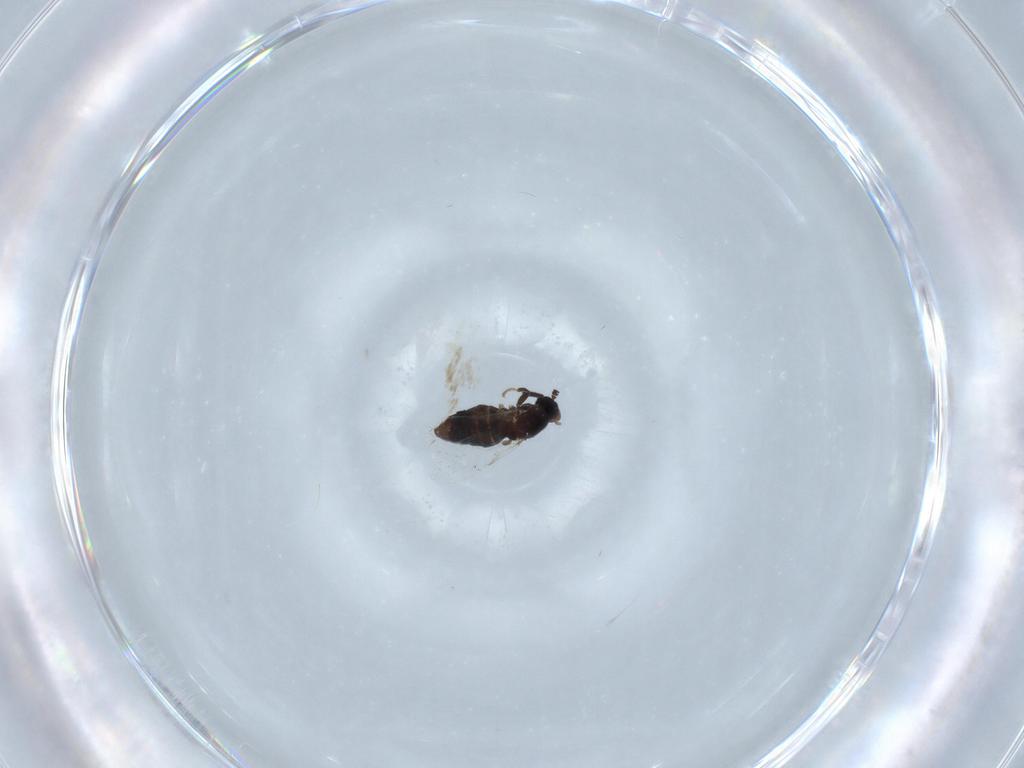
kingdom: Animalia
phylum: Arthropoda
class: Insecta
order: Diptera
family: Scatopsidae
